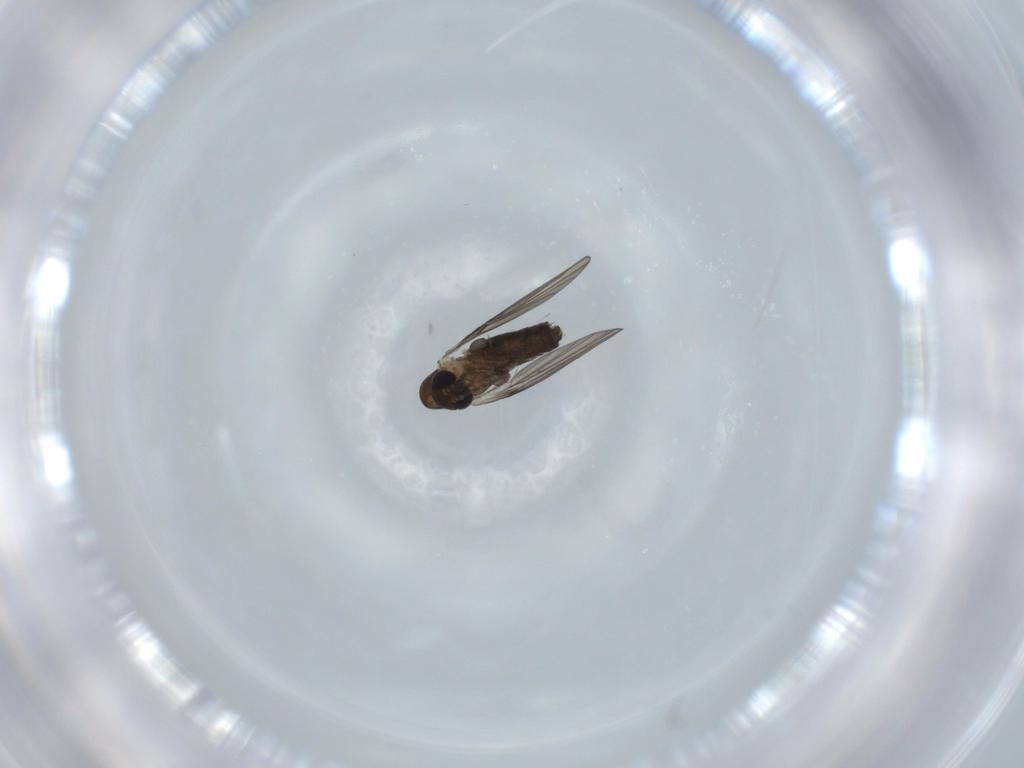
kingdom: Animalia
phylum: Arthropoda
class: Insecta
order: Diptera
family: Psychodidae
